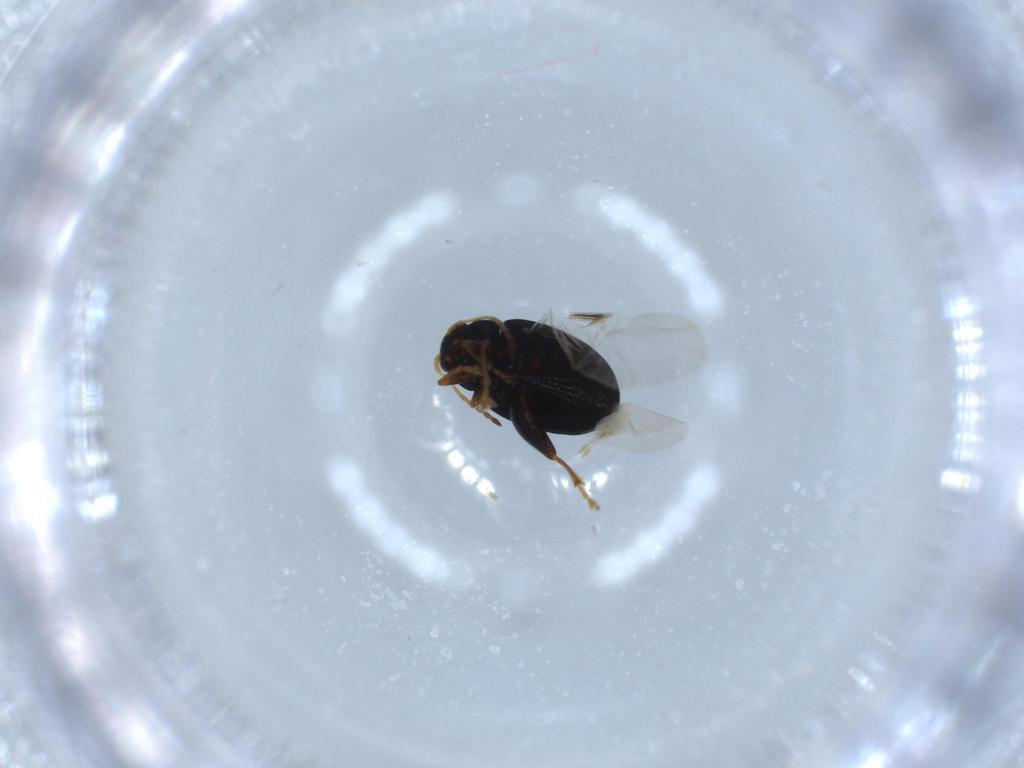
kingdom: Animalia
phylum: Arthropoda
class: Insecta
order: Coleoptera
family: Chrysomelidae
